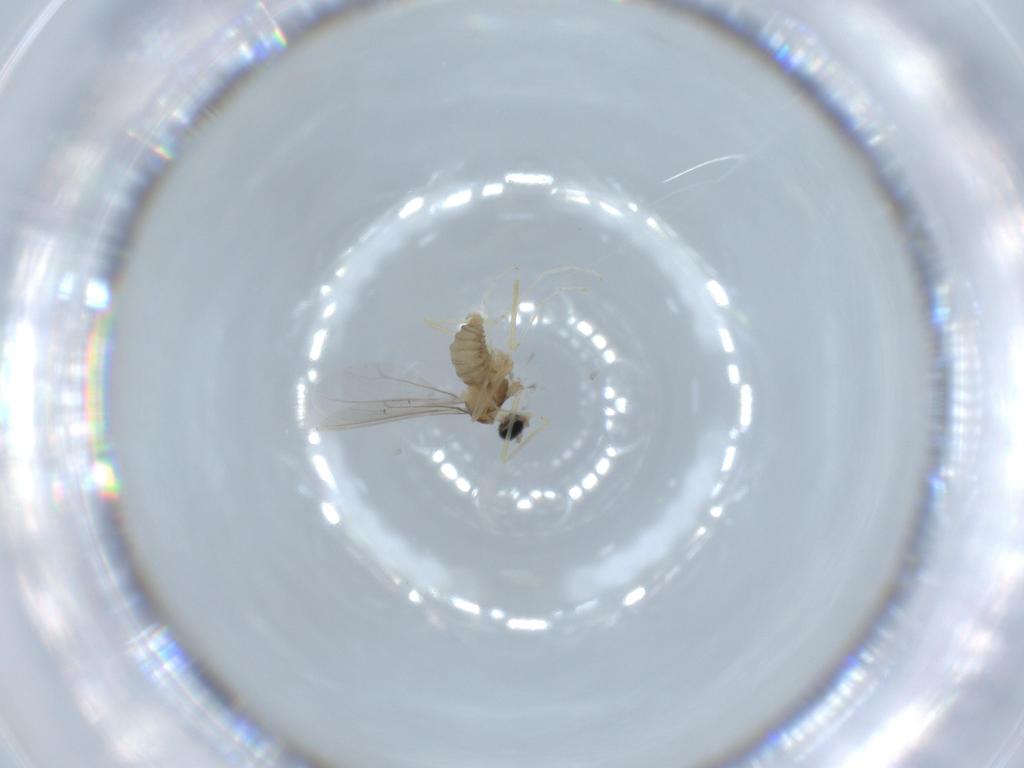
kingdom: Animalia
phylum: Arthropoda
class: Insecta
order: Diptera
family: Cecidomyiidae
